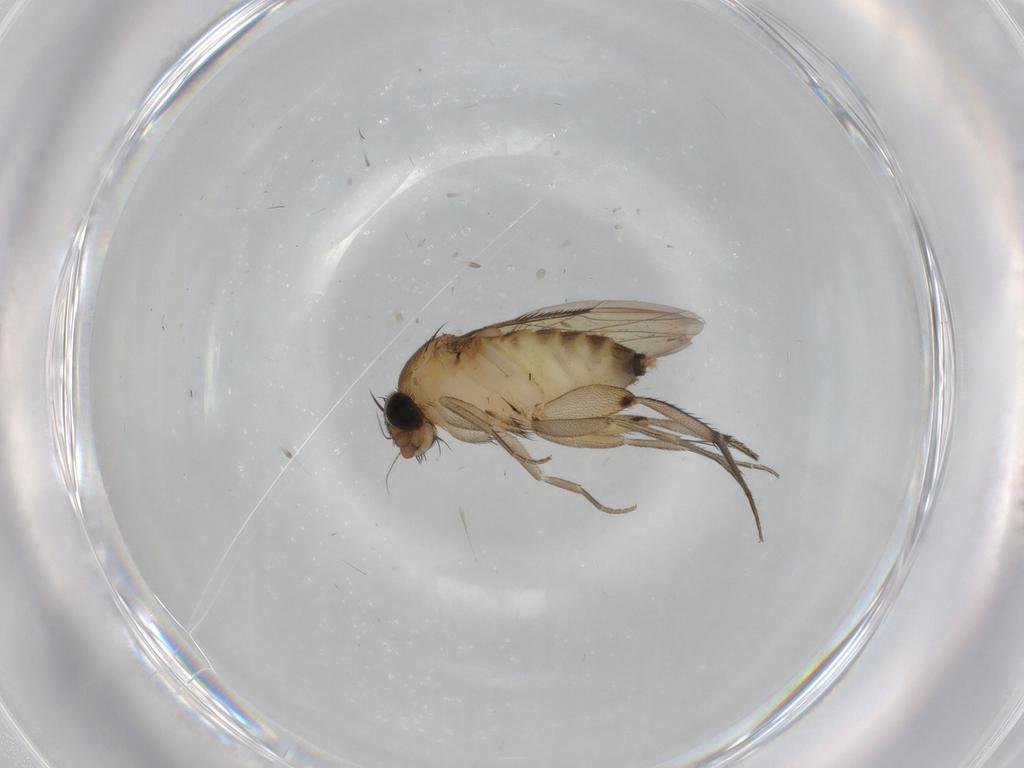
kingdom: Animalia
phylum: Arthropoda
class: Insecta
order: Diptera
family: Phoridae
